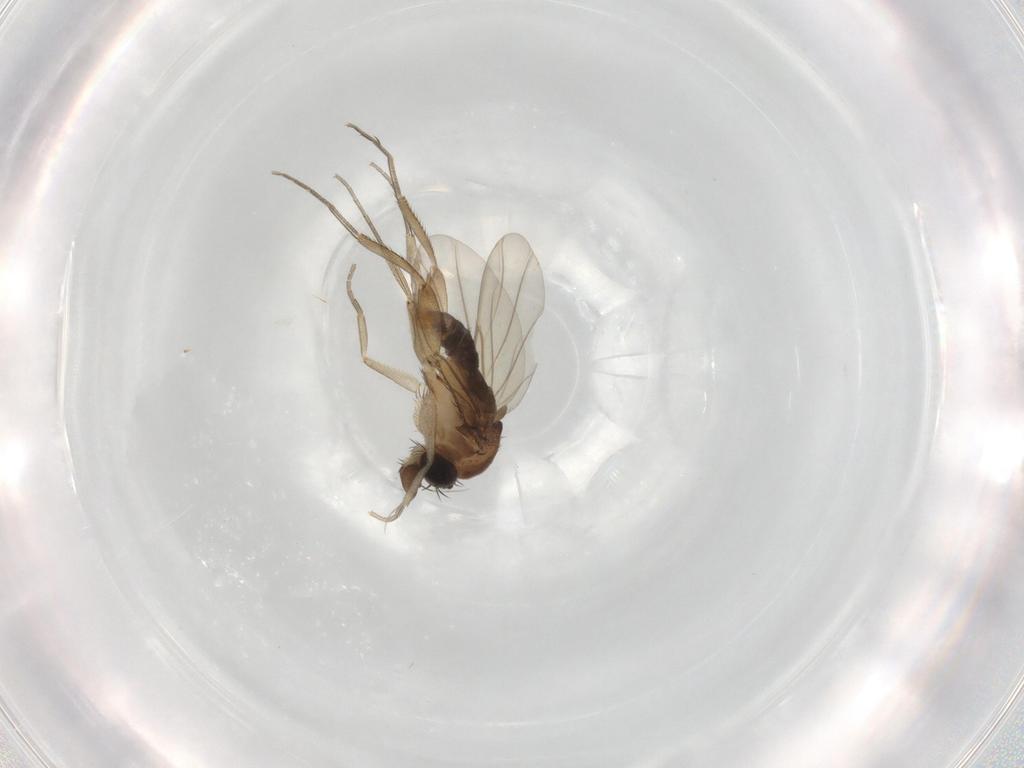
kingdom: Animalia
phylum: Arthropoda
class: Insecta
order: Diptera
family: Phoridae
